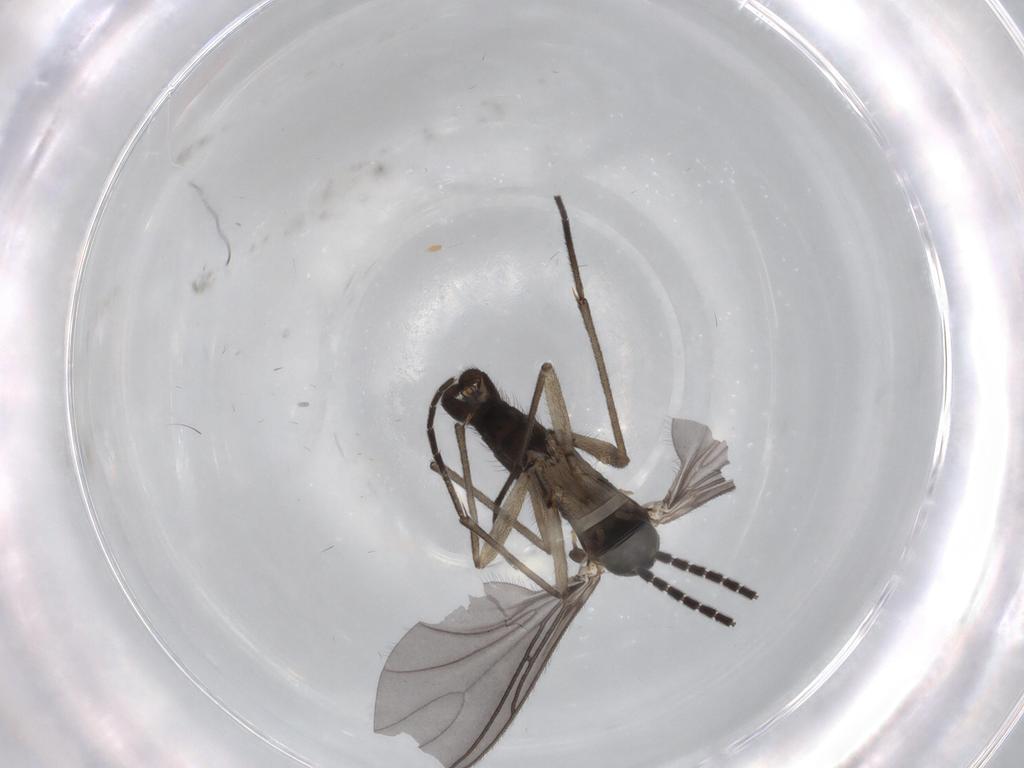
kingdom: Animalia
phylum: Arthropoda
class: Insecta
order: Diptera
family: Sciaridae
